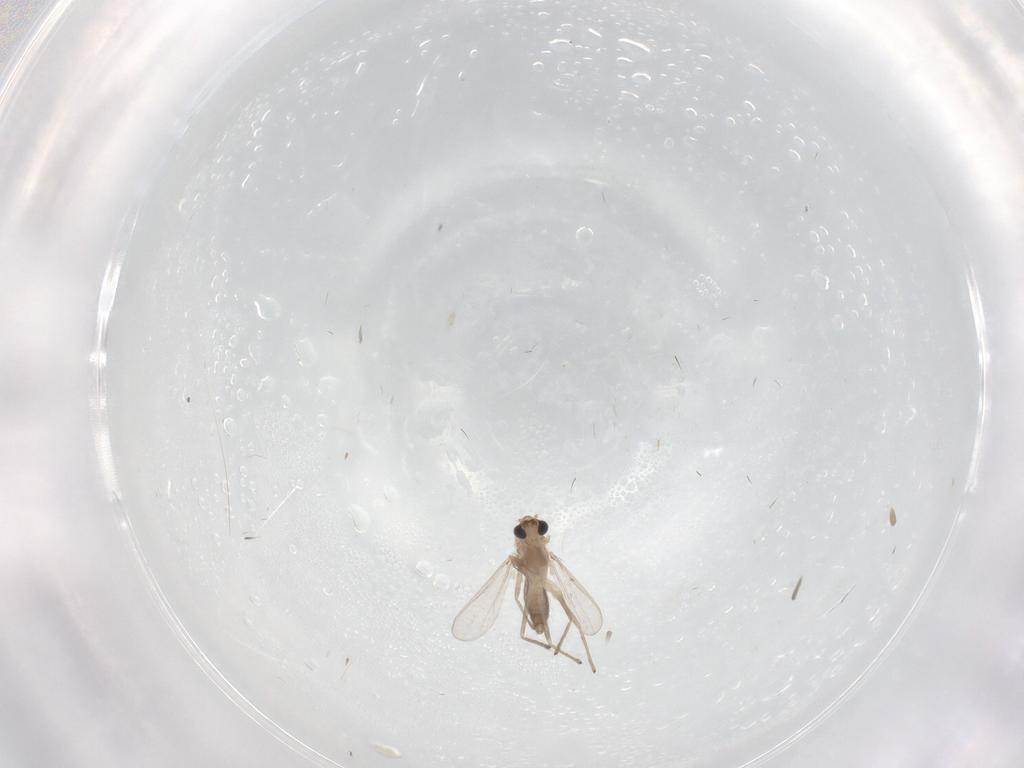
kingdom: Animalia
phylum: Arthropoda
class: Insecta
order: Diptera
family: Chironomidae
